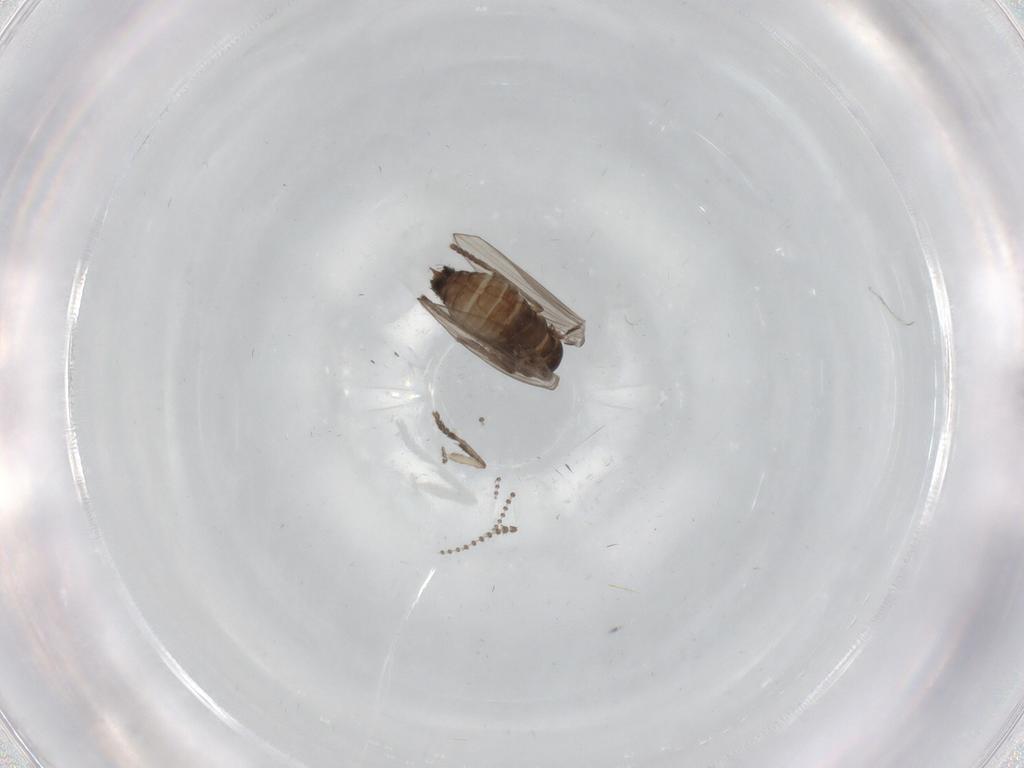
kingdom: Animalia
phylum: Arthropoda
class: Insecta
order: Diptera
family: Psychodidae
